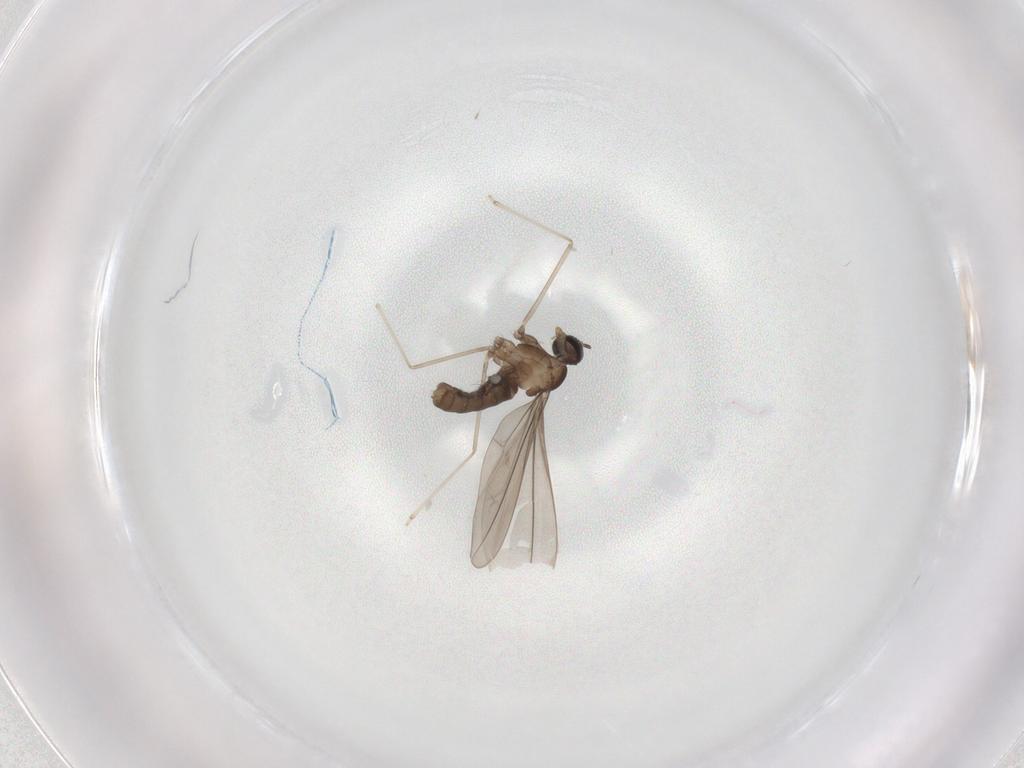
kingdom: Animalia
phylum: Arthropoda
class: Insecta
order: Diptera
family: Cecidomyiidae
